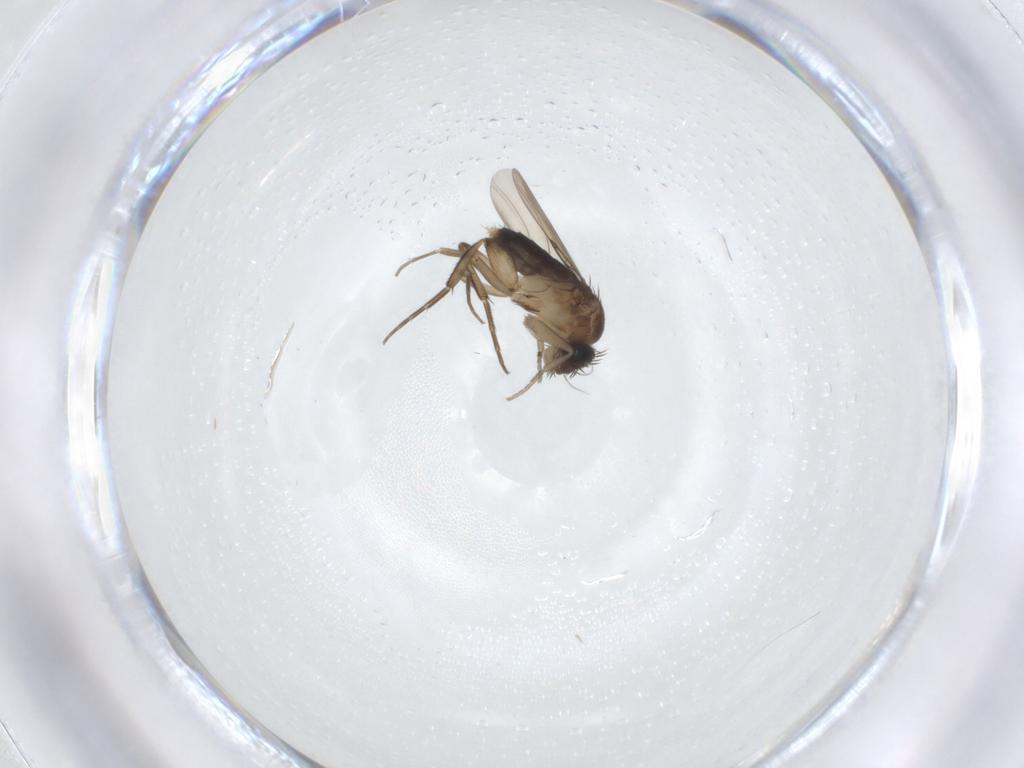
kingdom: Animalia
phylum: Arthropoda
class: Insecta
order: Diptera
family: Phoridae
